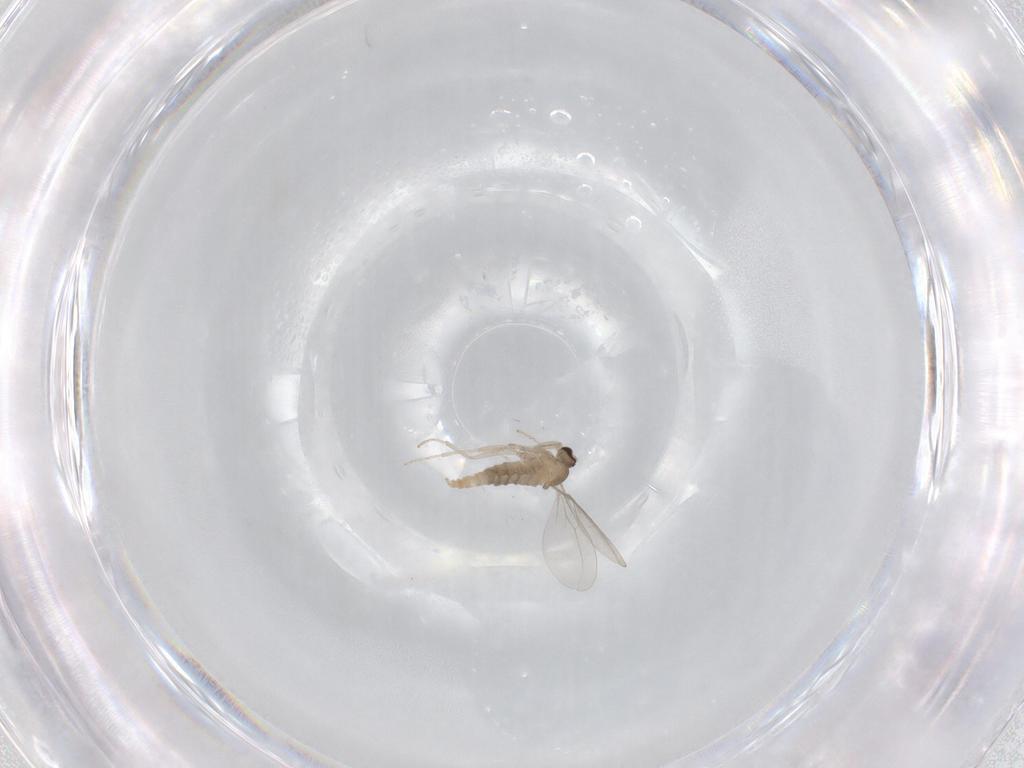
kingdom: Animalia
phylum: Arthropoda
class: Insecta
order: Diptera
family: Cecidomyiidae
